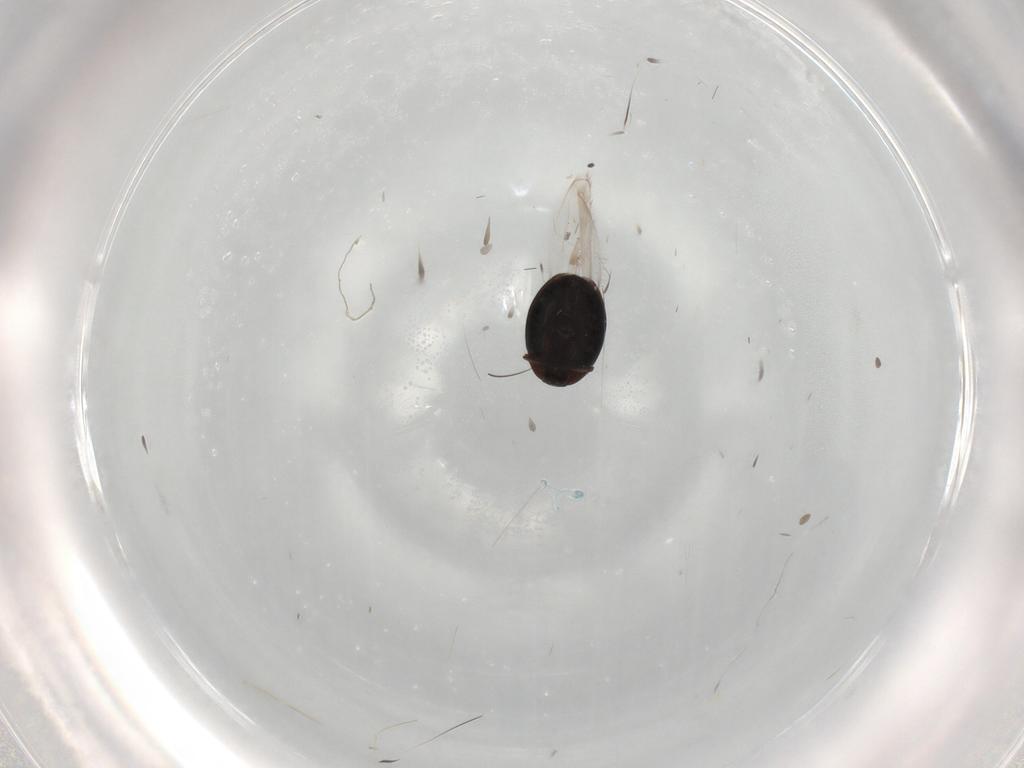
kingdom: Animalia
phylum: Arthropoda
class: Insecta
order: Coleoptera
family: Corylophidae
